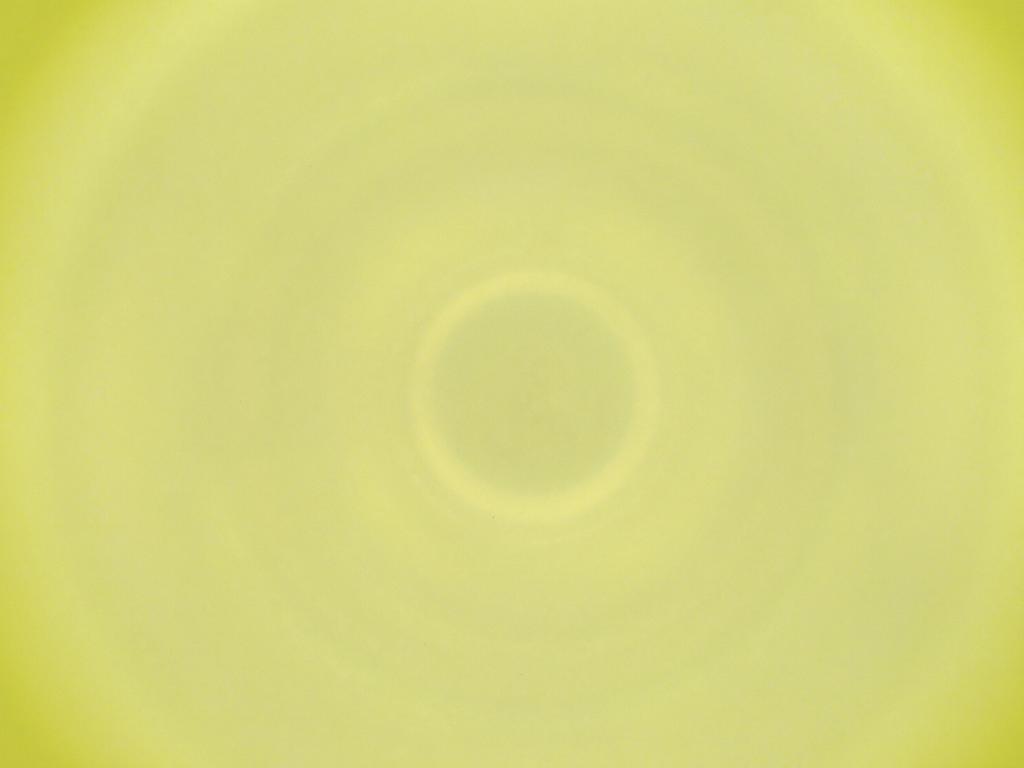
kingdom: Animalia
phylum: Arthropoda
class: Insecta
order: Diptera
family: Cecidomyiidae
